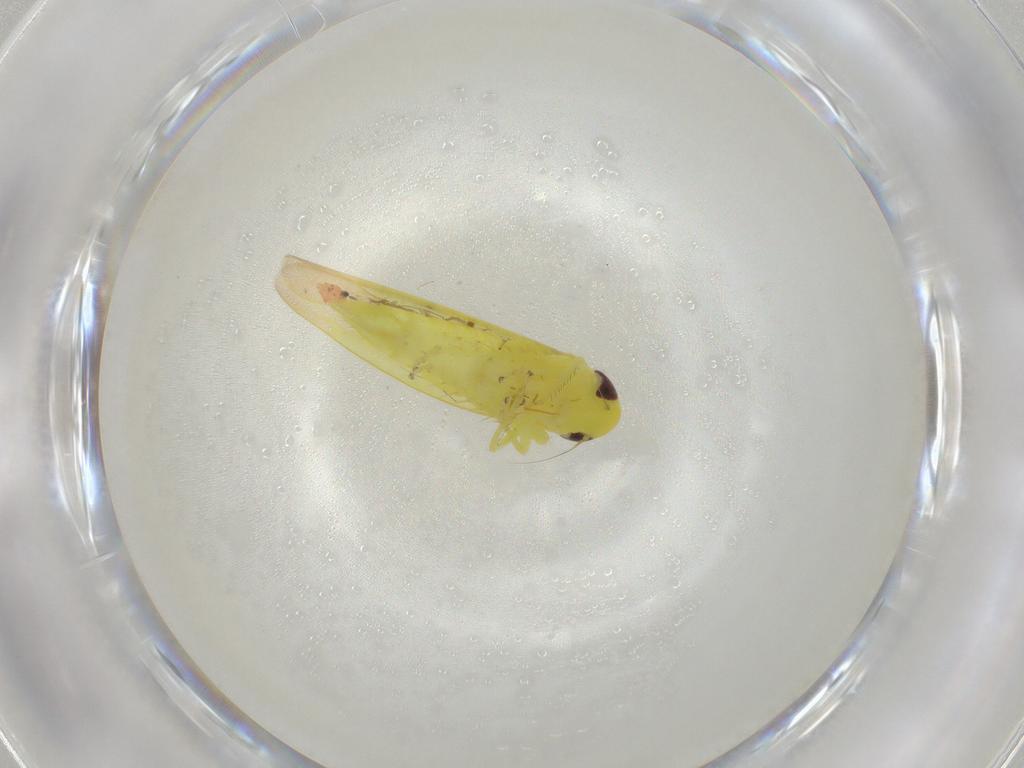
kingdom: Animalia
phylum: Arthropoda
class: Insecta
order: Hemiptera
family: Cicadellidae
